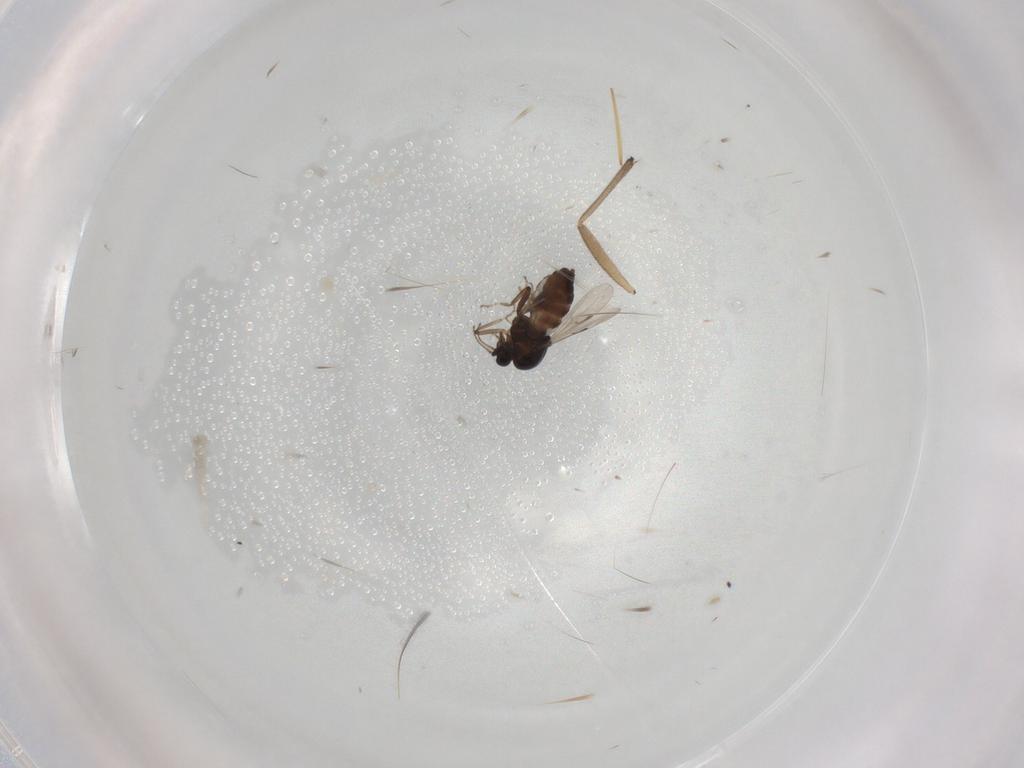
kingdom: Animalia
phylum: Arthropoda
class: Insecta
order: Diptera
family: Ceratopogonidae
